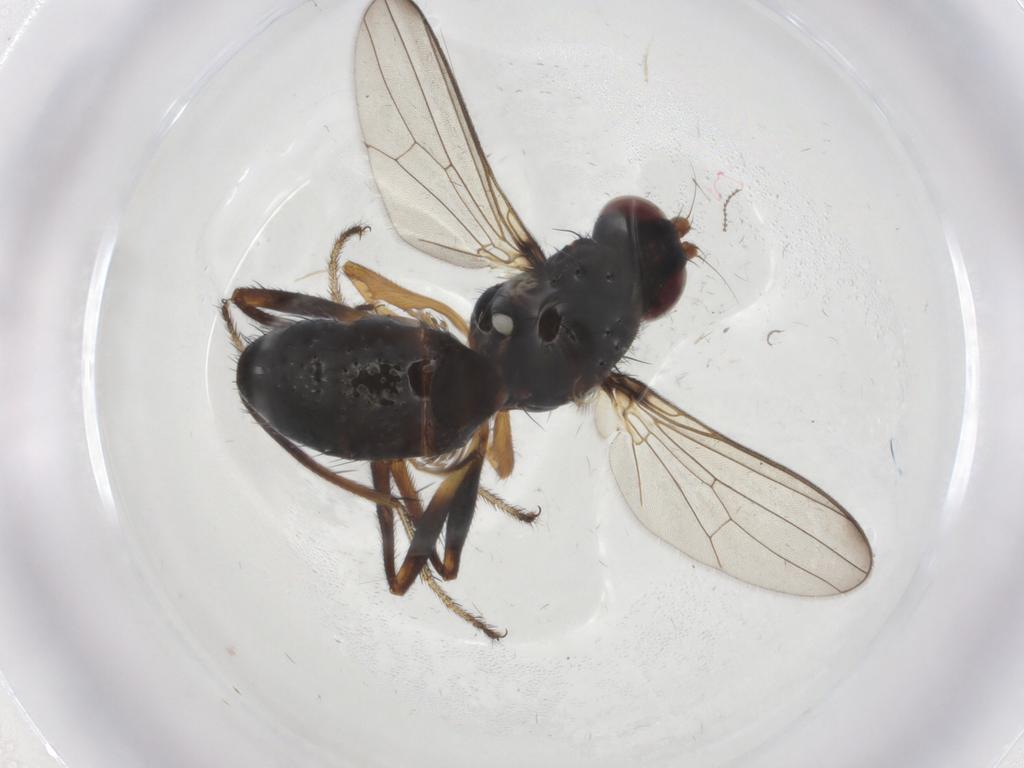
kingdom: Animalia
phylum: Arthropoda
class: Insecta
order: Diptera
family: Sepsidae
